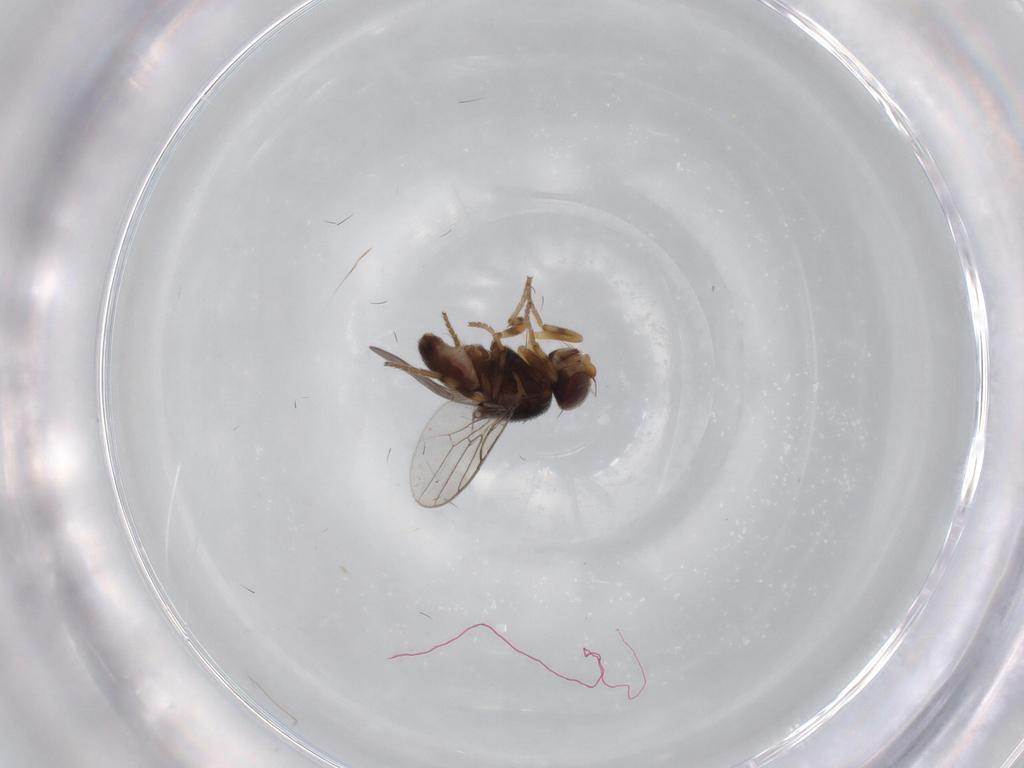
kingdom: Animalia
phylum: Arthropoda
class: Insecta
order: Diptera
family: Chloropidae
